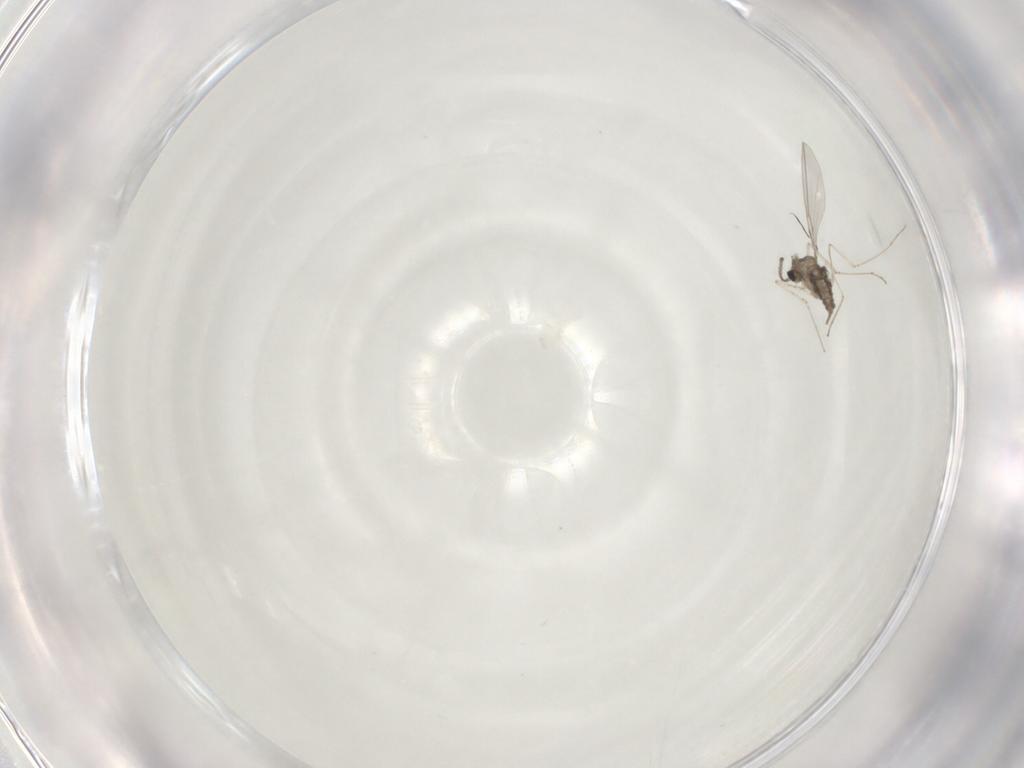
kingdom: Animalia
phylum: Arthropoda
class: Insecta
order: Diptera
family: Cecidomyiidae
